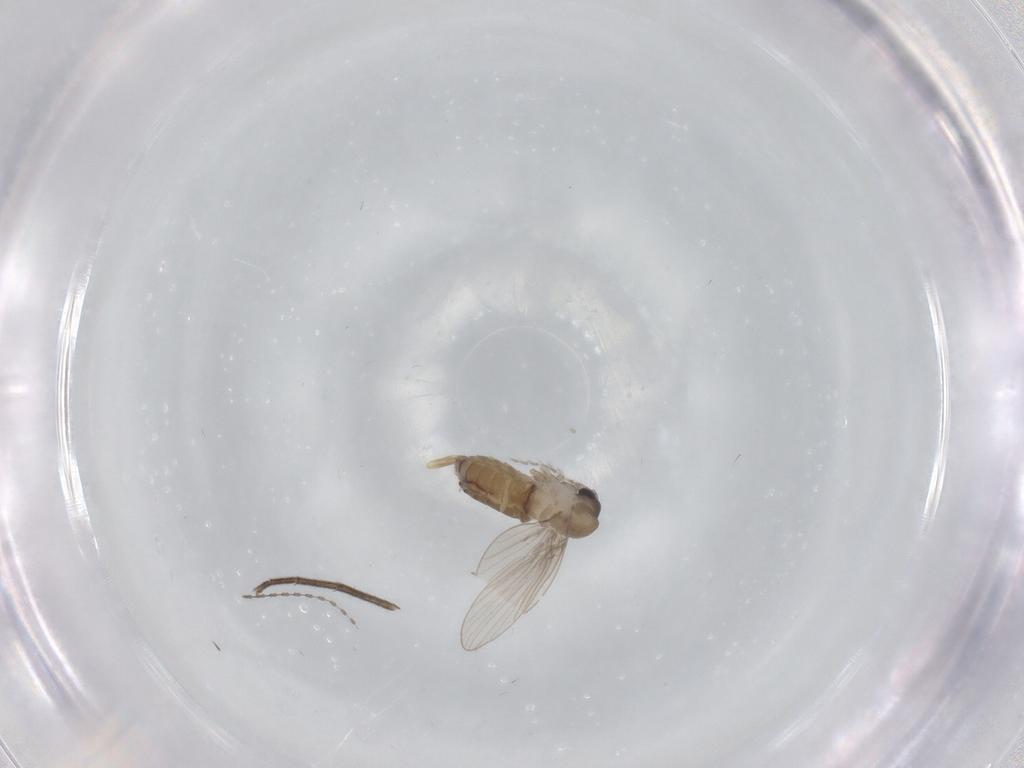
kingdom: Animalia
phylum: Arthropoda
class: Insecta
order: Diptera
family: Mycetophilidae
